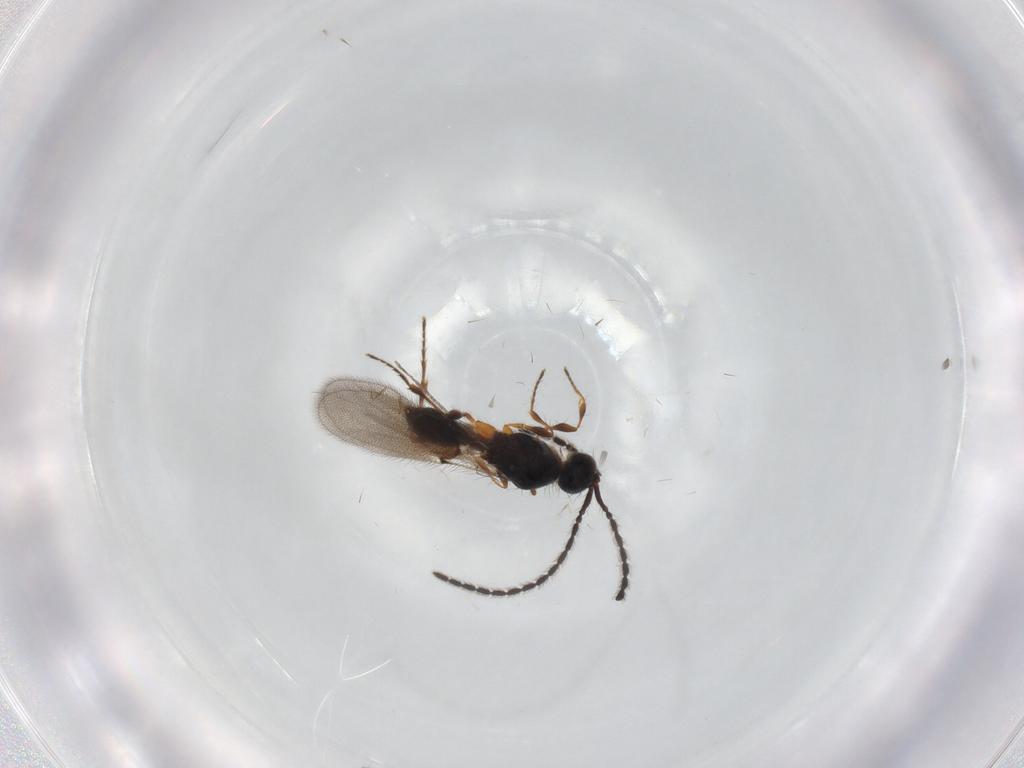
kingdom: Animalia
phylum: Arthropoda
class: Insecta
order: Hymenoptera
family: Diapriidae
